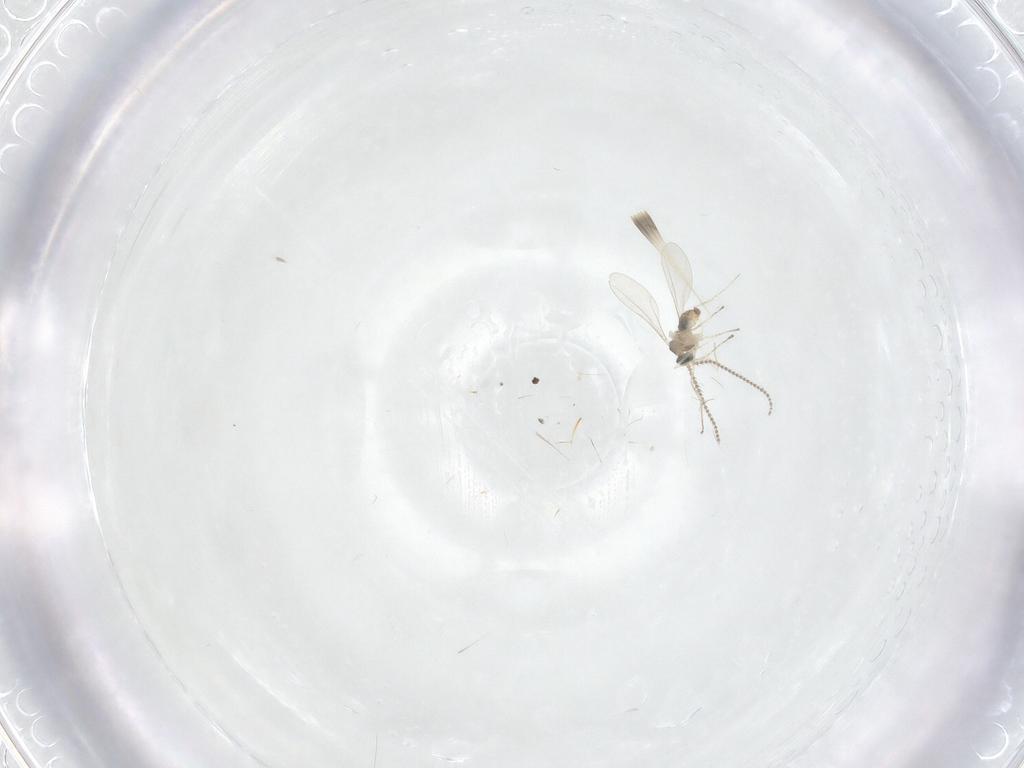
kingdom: Animalia
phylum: Arthropoda
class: Insecta
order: Diptera
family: Cecidomyiidae
